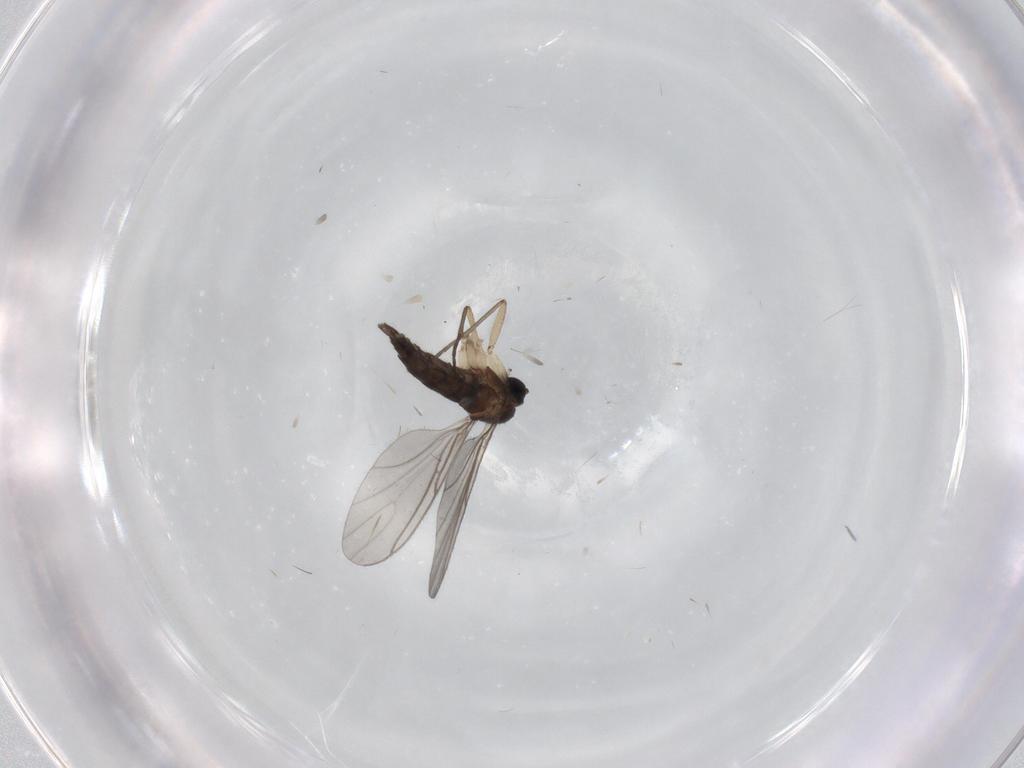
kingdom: Animalia
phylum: Arthropoda
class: Insecta
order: Diptera
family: Sciaridae
